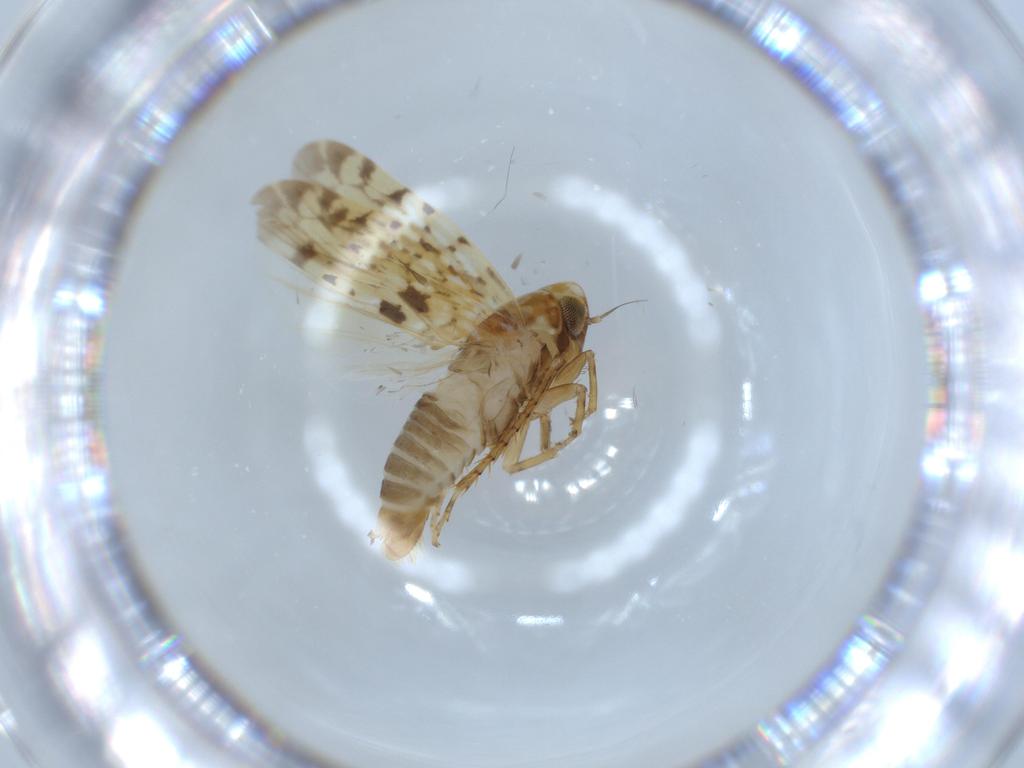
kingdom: Animalia
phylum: Arthropoda
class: Insecta
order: Hemiptera
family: Cicadellidae
